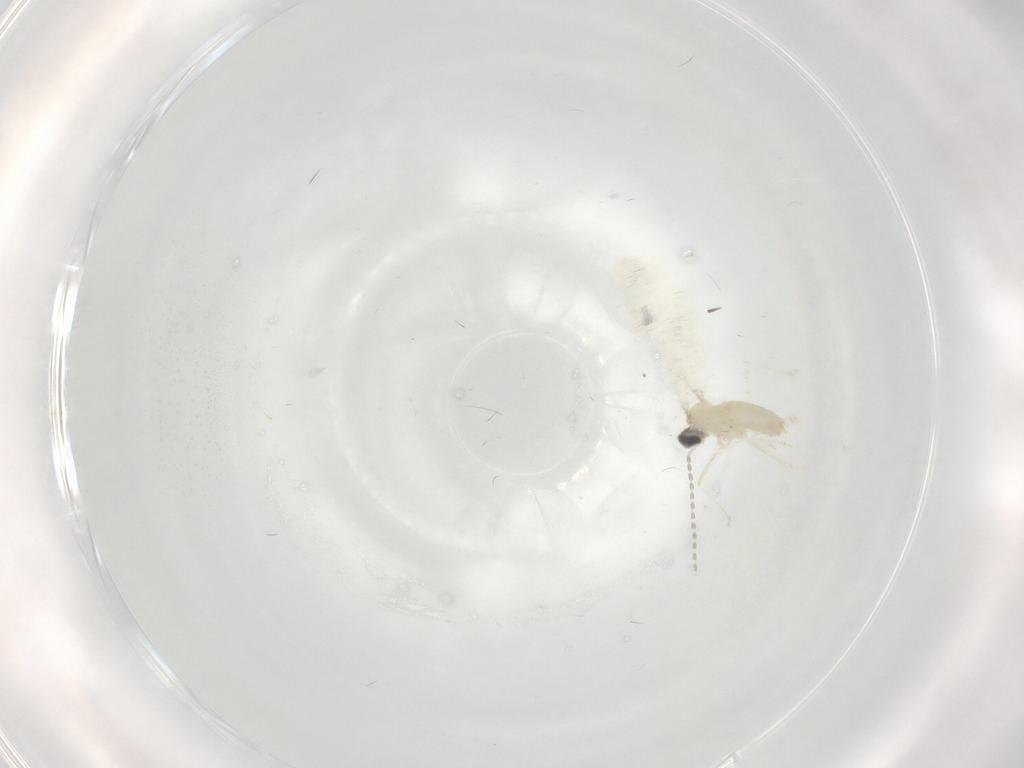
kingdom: Animalia
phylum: Arthropoda
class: Insecta
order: Diptera
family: Cecidomyiidae
